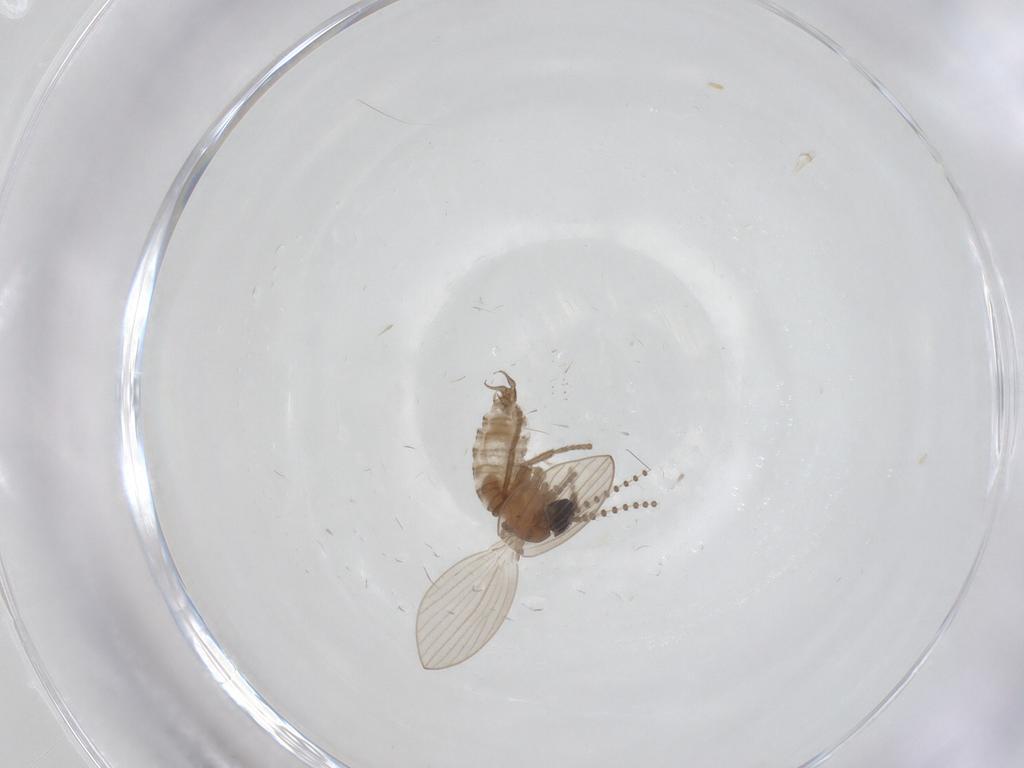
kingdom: Animalia
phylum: Arthropoda
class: Insecta
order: Diptera
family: Psychodidae
